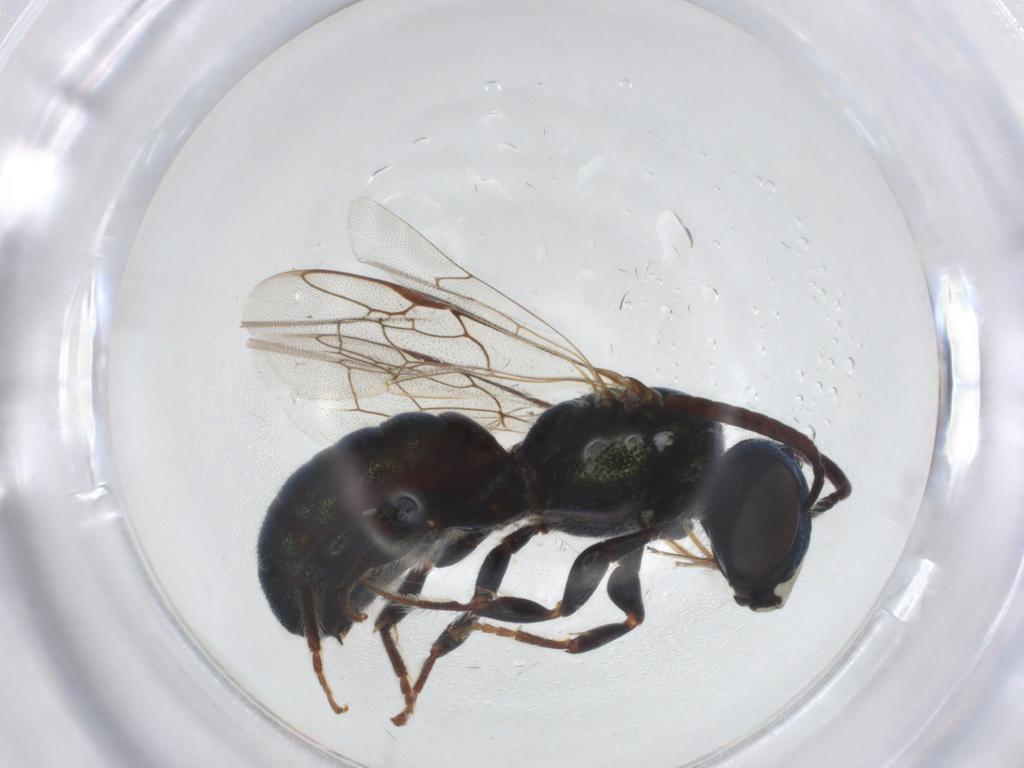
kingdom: Animalia
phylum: Arthropoda
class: Insecta
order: Hymenoptera
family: Apidae
